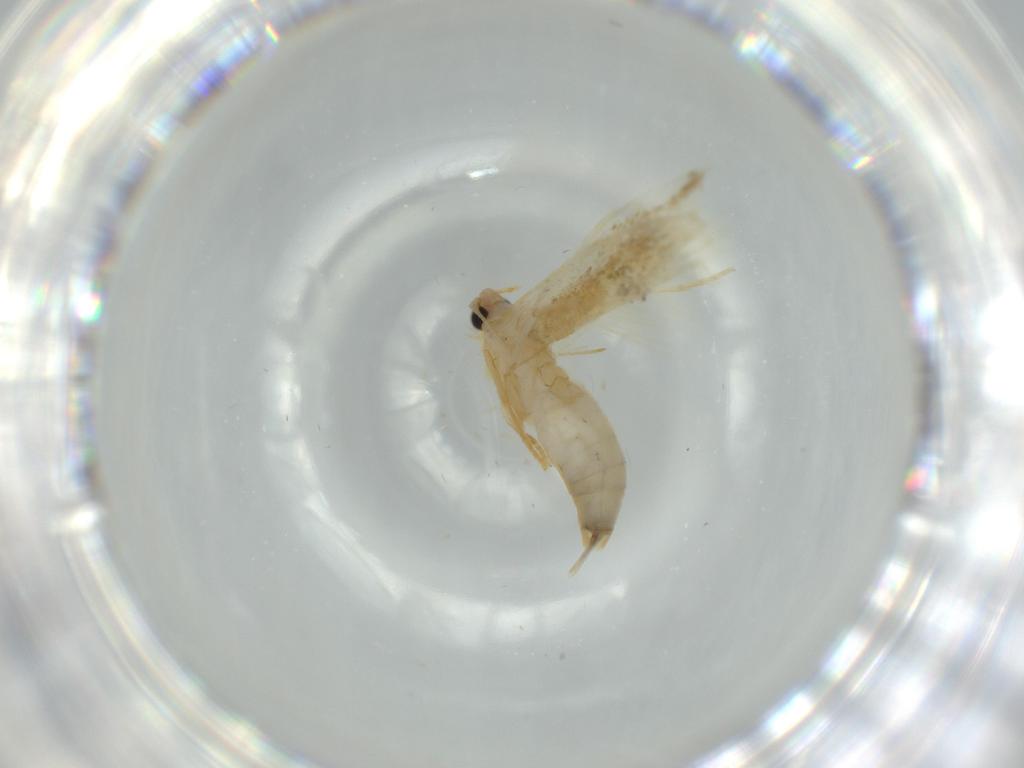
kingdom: Animalia
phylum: Arthropoda
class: Insecta
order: Lepidoptera
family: Tineidae
